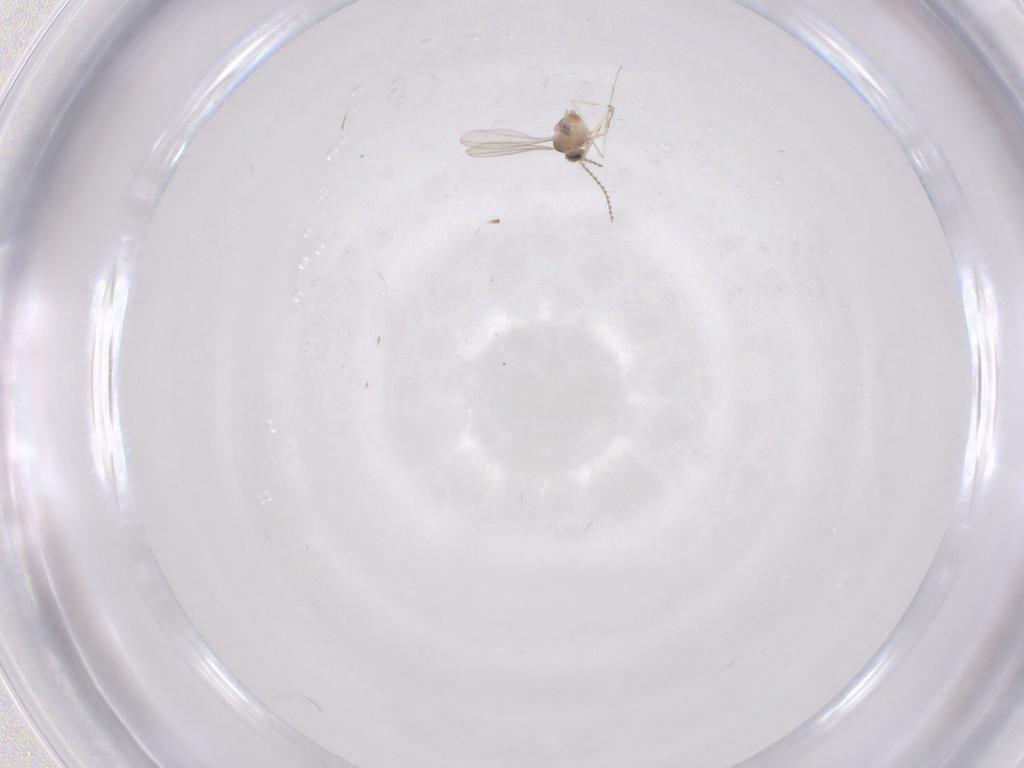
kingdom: Animalia
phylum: Arthropoda
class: Insecta
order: Diptera
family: Cecidomyiidae
